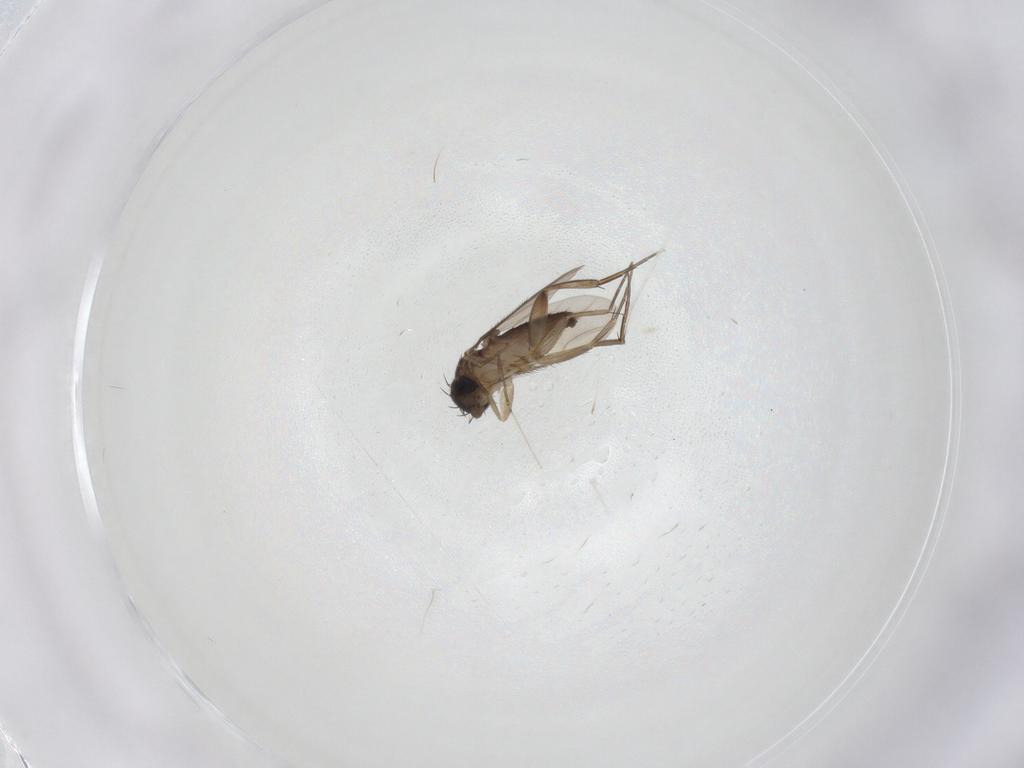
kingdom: Animalia
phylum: Arthropoda
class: Insecta
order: Diptera
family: Phoridae
